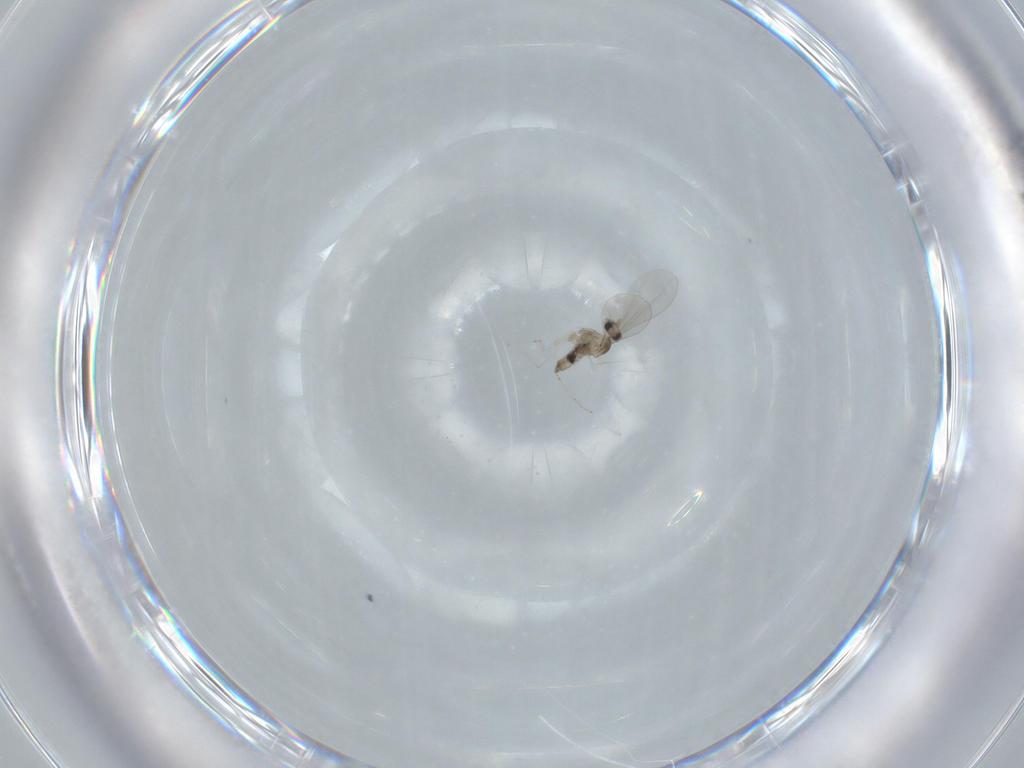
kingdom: Animalia
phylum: Arthropoda
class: Insecta
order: Diptera
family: Cecidomyiidae
